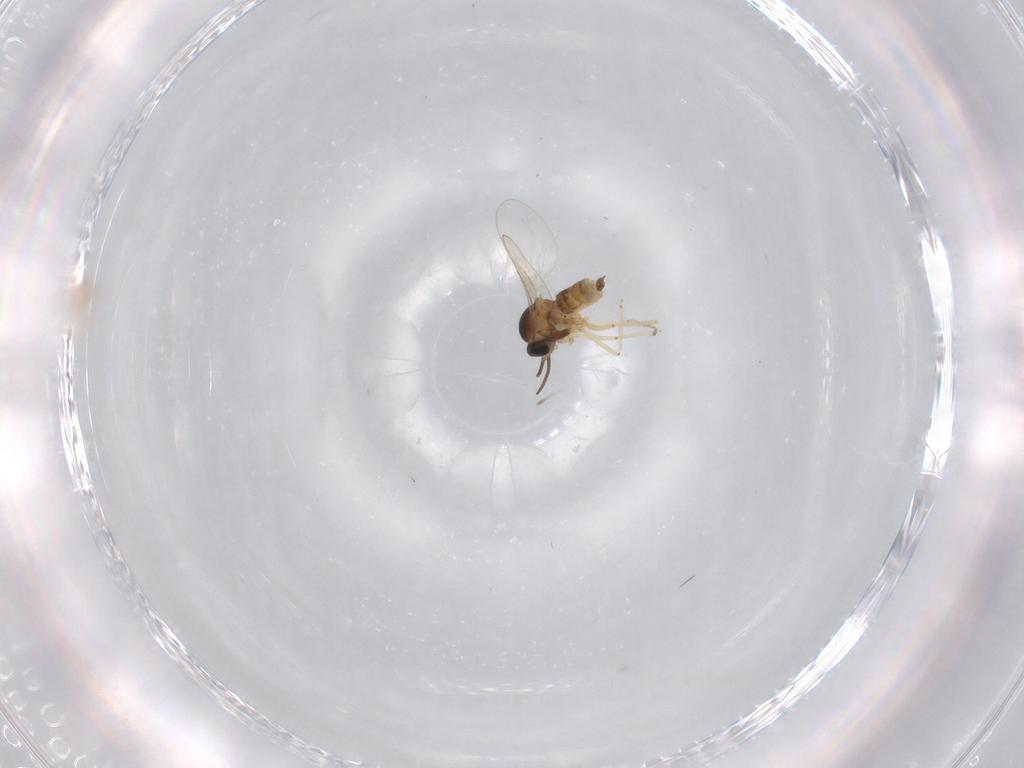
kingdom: Animalia
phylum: Arthropoda
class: Insecta
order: Diptera
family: Cecidomyiidae
